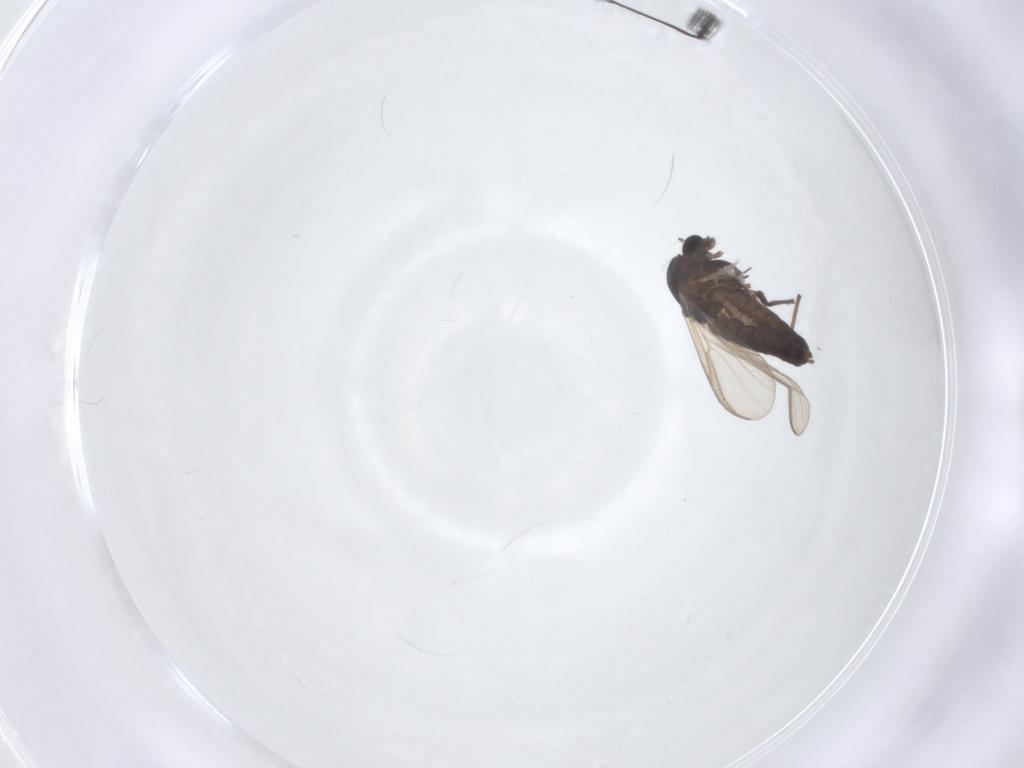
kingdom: Animalia
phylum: Arthropoda
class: Insecta
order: Diptera
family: Chironomidae
